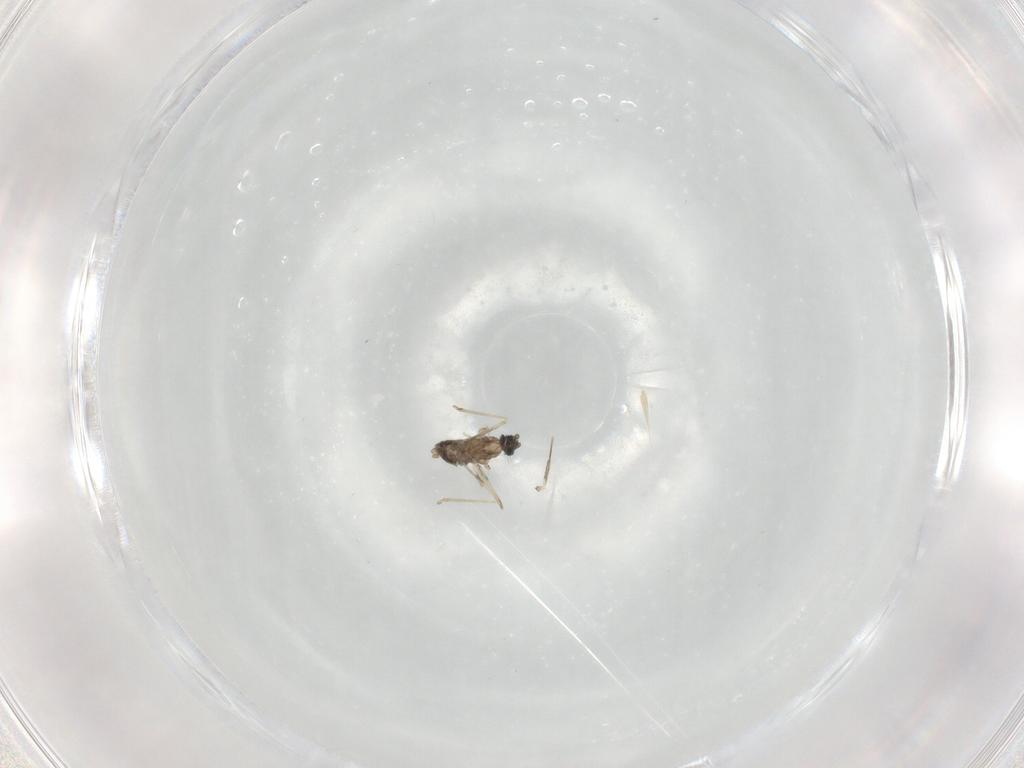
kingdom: Animalia
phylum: Arthropoda
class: Insecta
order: Diptera
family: Cecidomyiidae
